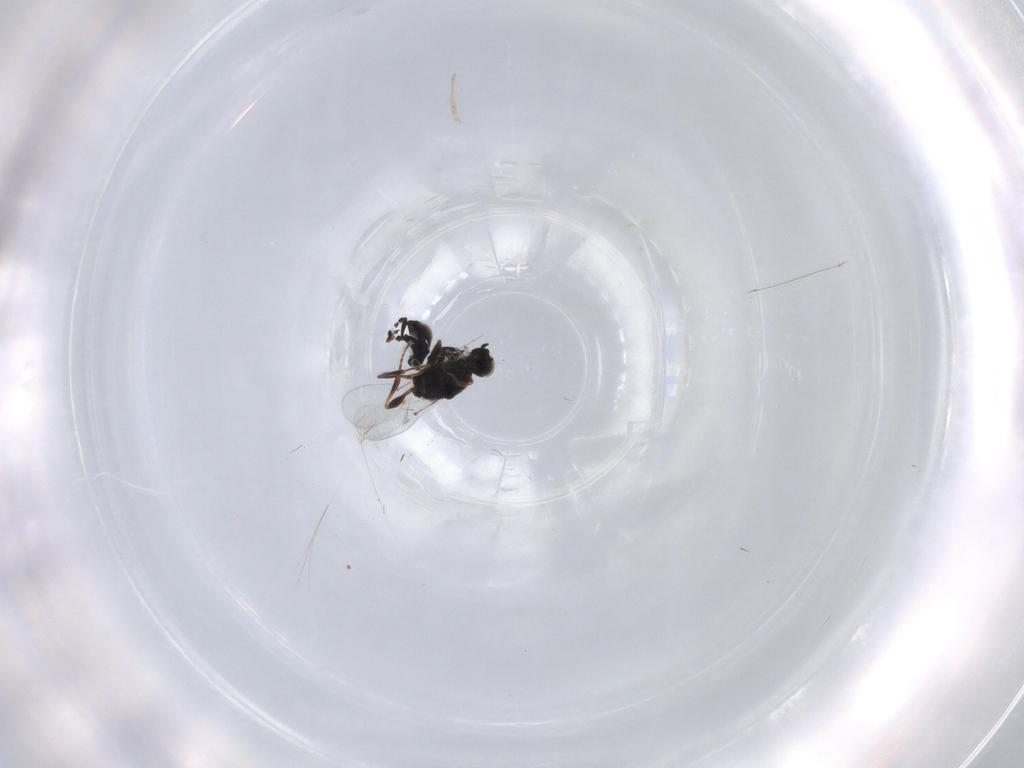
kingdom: Animalia
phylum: Arthropoda
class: Insecta
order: Hymenoptera
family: Platygastridae
